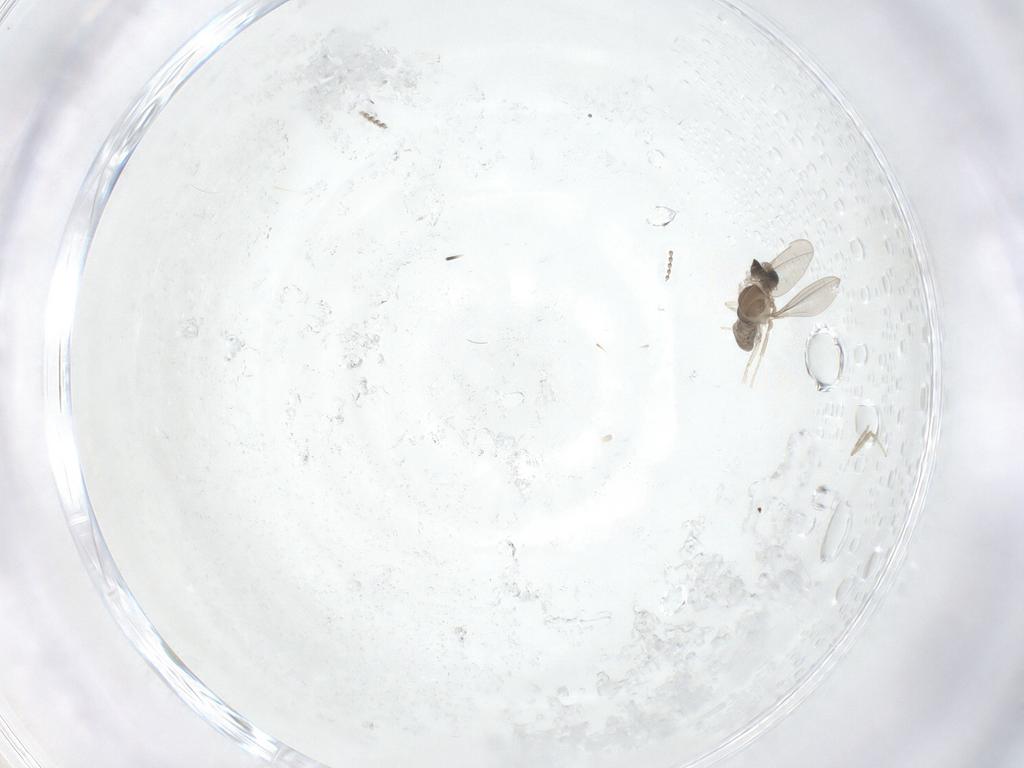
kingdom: Animalia
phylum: Arthropoda
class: Insecta
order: Diptera
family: Cecidomyiidae
